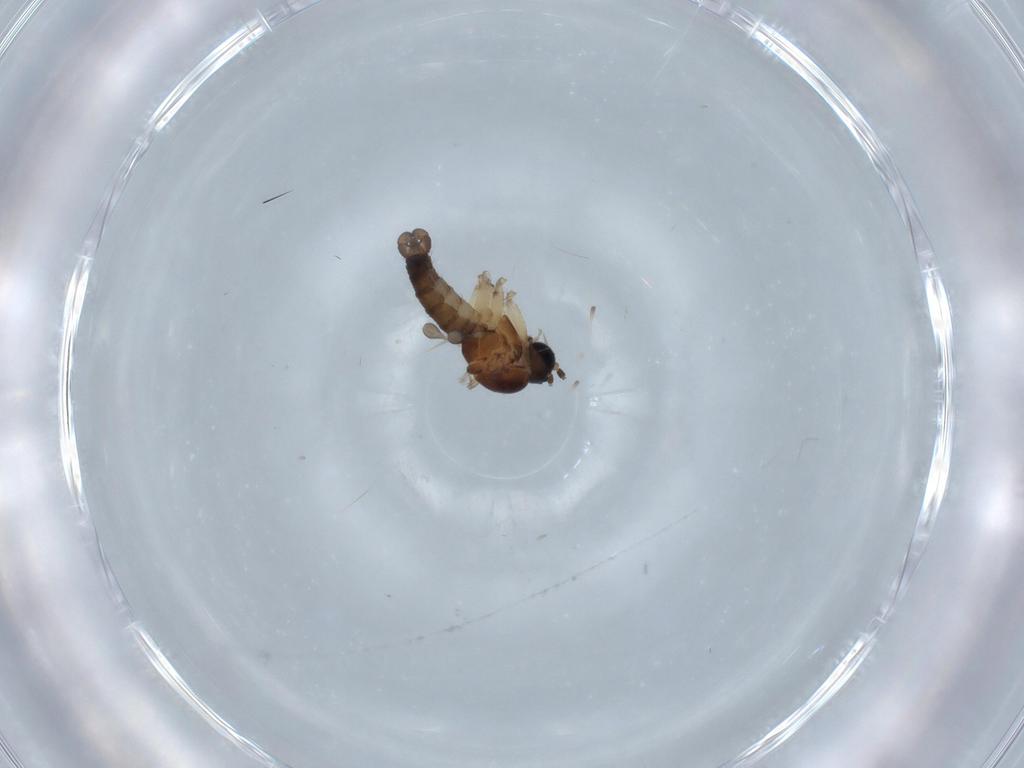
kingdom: Animalia
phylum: Arthropoda
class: Insecta
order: Diptera
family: Sciaridae
